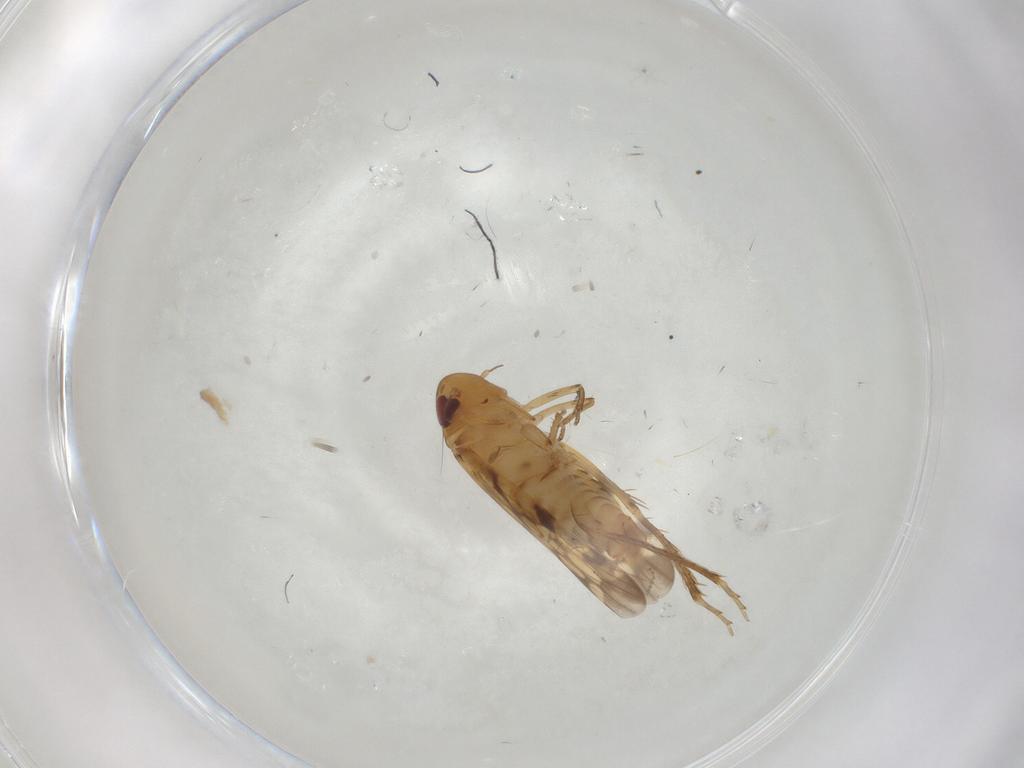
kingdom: Animalia
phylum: Arthropoda
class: Insecta
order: Hemiptera
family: Cicadellidae
